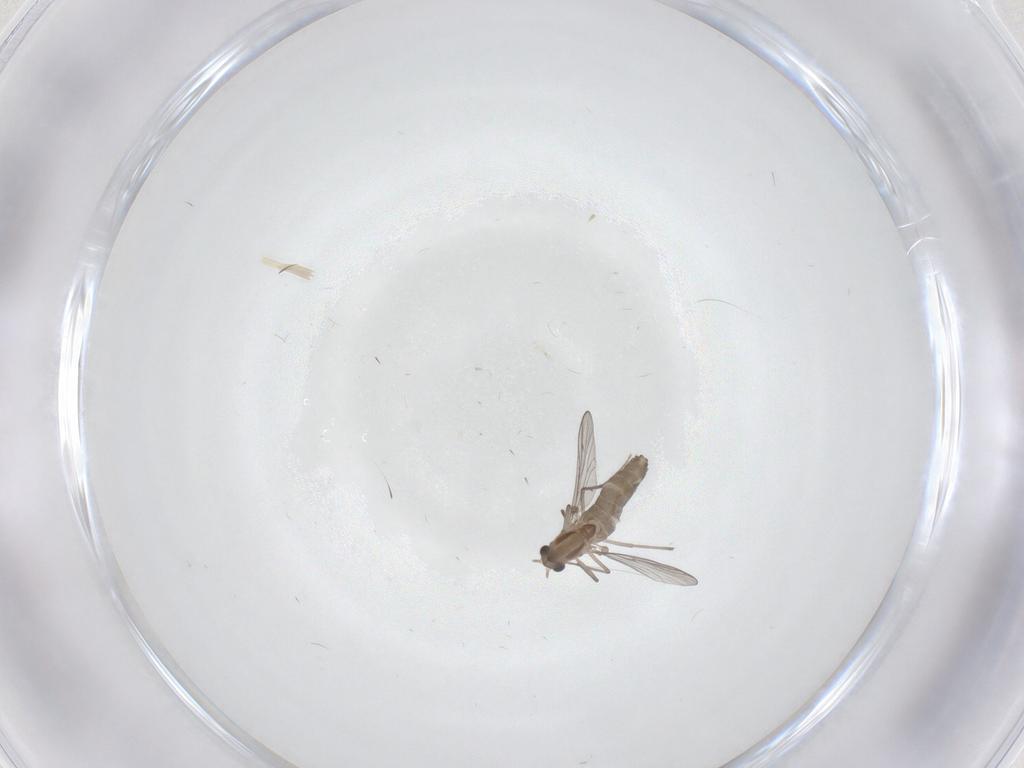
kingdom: Animalia
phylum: Arthropoda
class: Insecta
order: Diptera
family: Chironomidae
